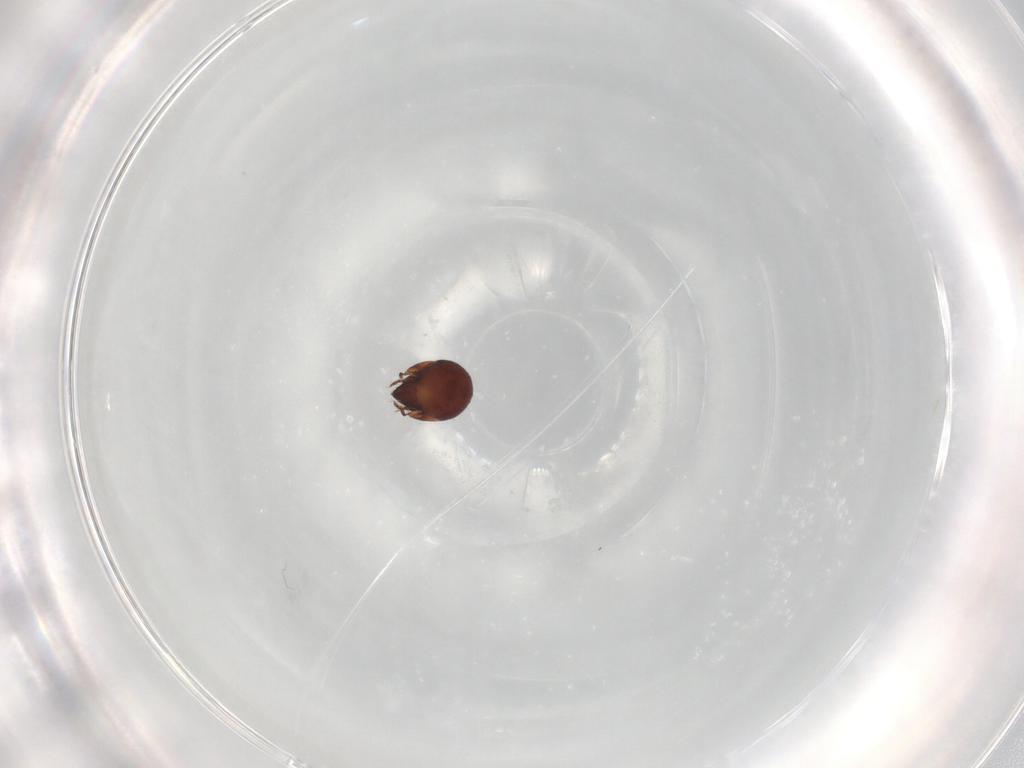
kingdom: Animalia
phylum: Arthropoda
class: Arachnida
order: Sarcoptiformes
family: Humerobatidae
